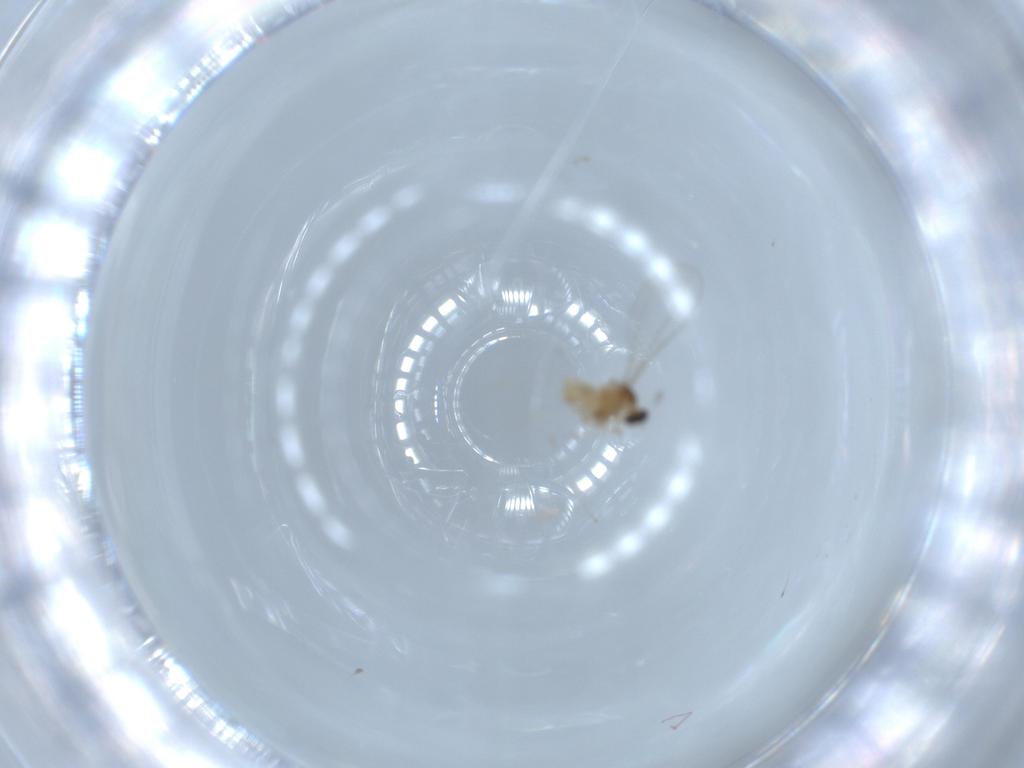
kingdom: Animalia
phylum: Arthropoda
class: Insecta
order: Diptera
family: Cecidomyiidae
